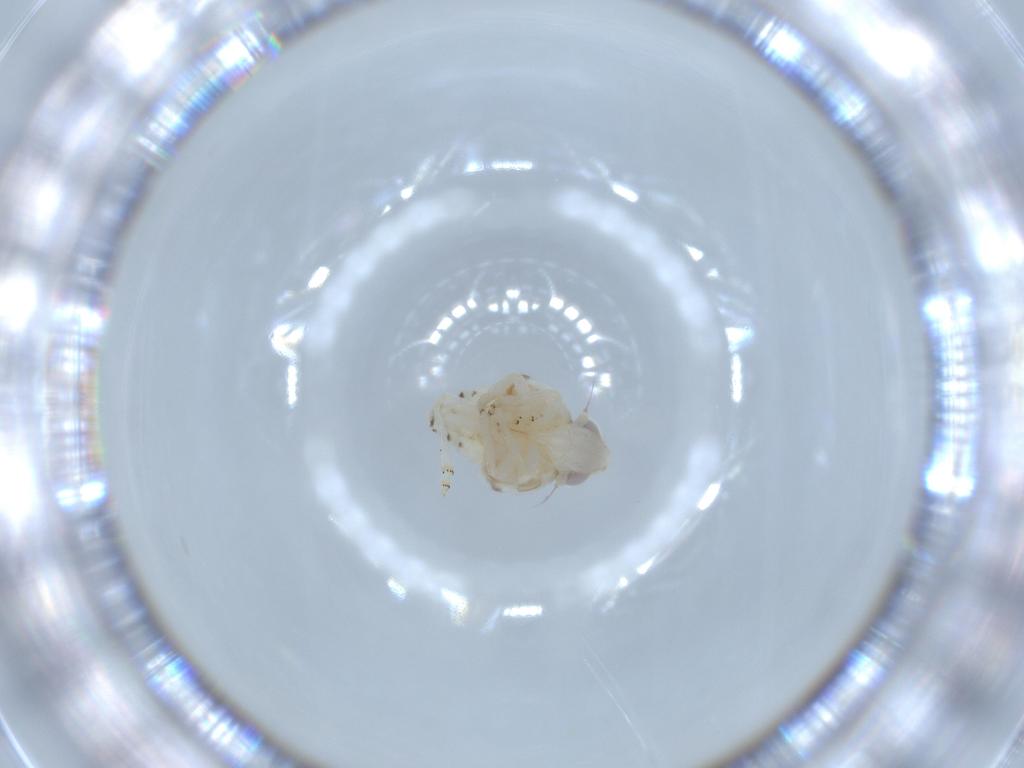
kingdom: Animalia
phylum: Arthropoda
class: Insecta
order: Hemiptera
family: Nogodinidae
